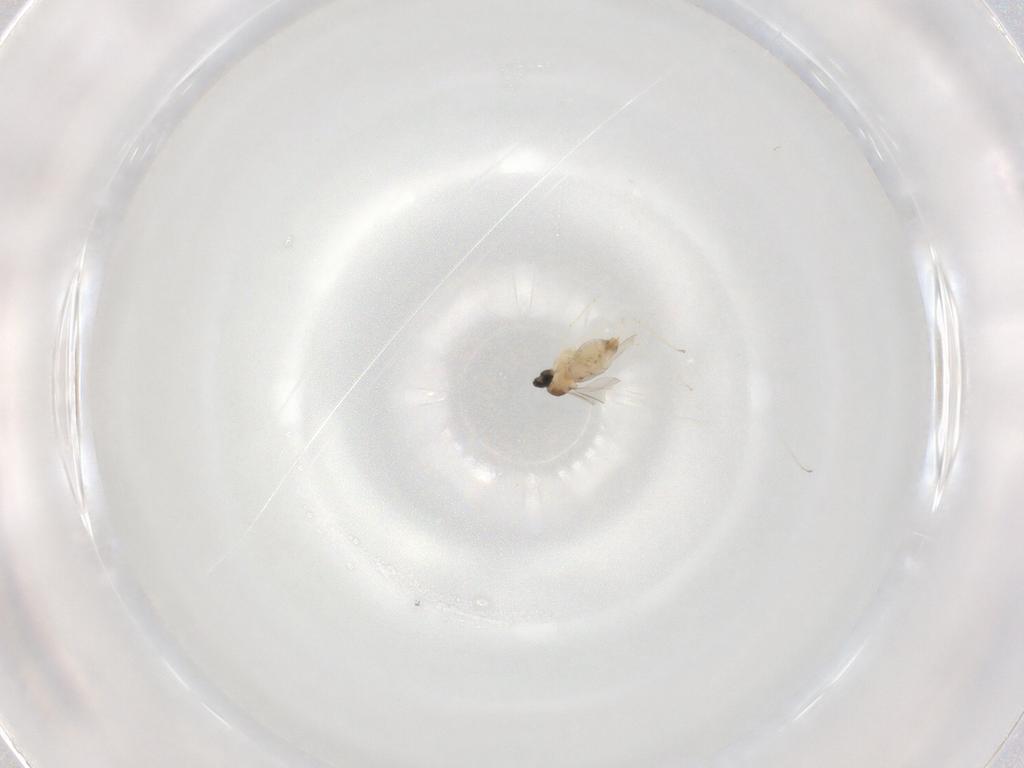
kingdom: Animalia
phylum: Arthropoda
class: Insecta
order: Diptera
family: Cecidomyiidae
